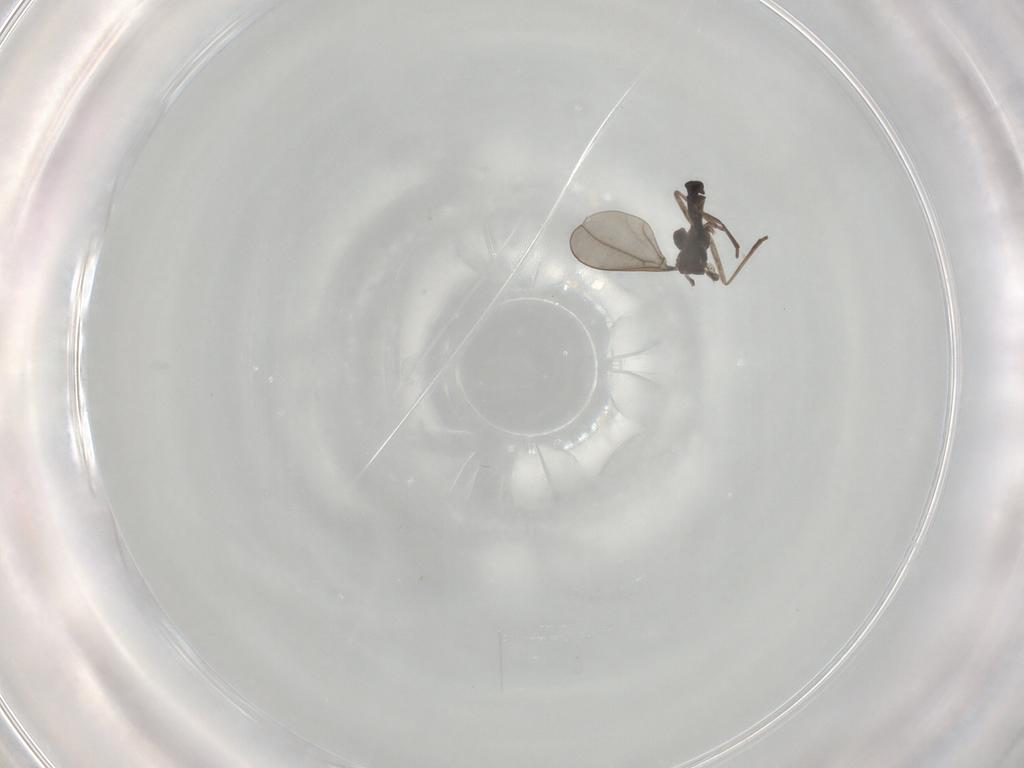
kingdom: Animalia
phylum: Arthropoda
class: Insecta
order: Diptera
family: Cecidomyiidae
